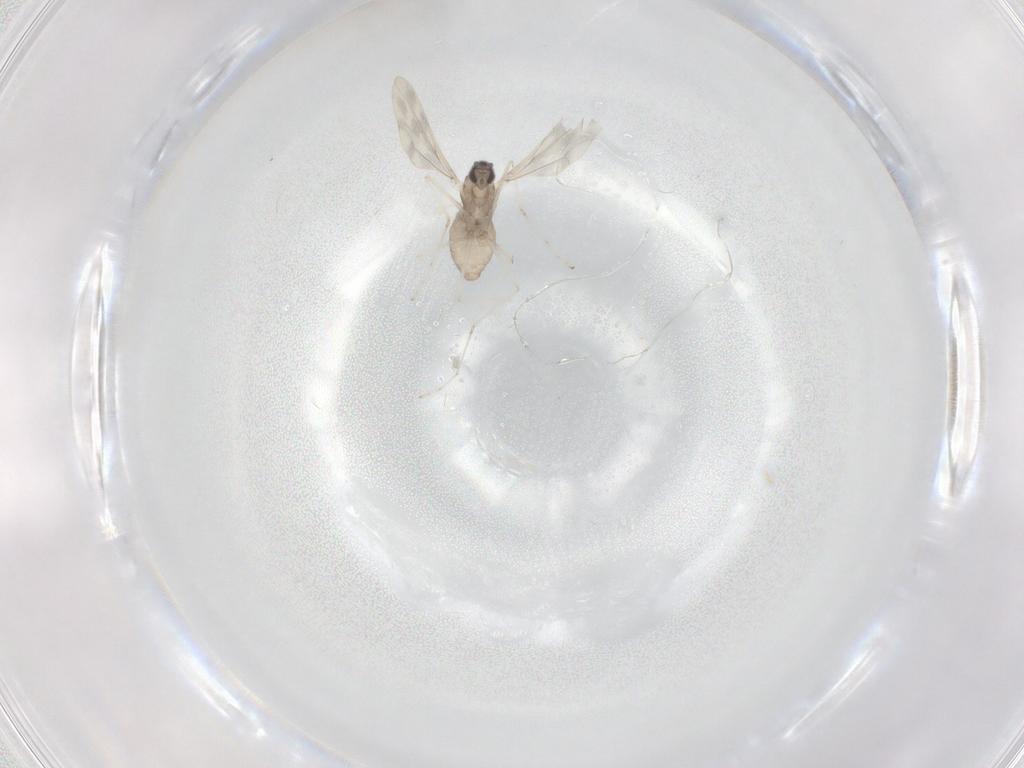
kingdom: Animalia
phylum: Arthropoda
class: Insecta
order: Diptera
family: Cecidomyiidae
